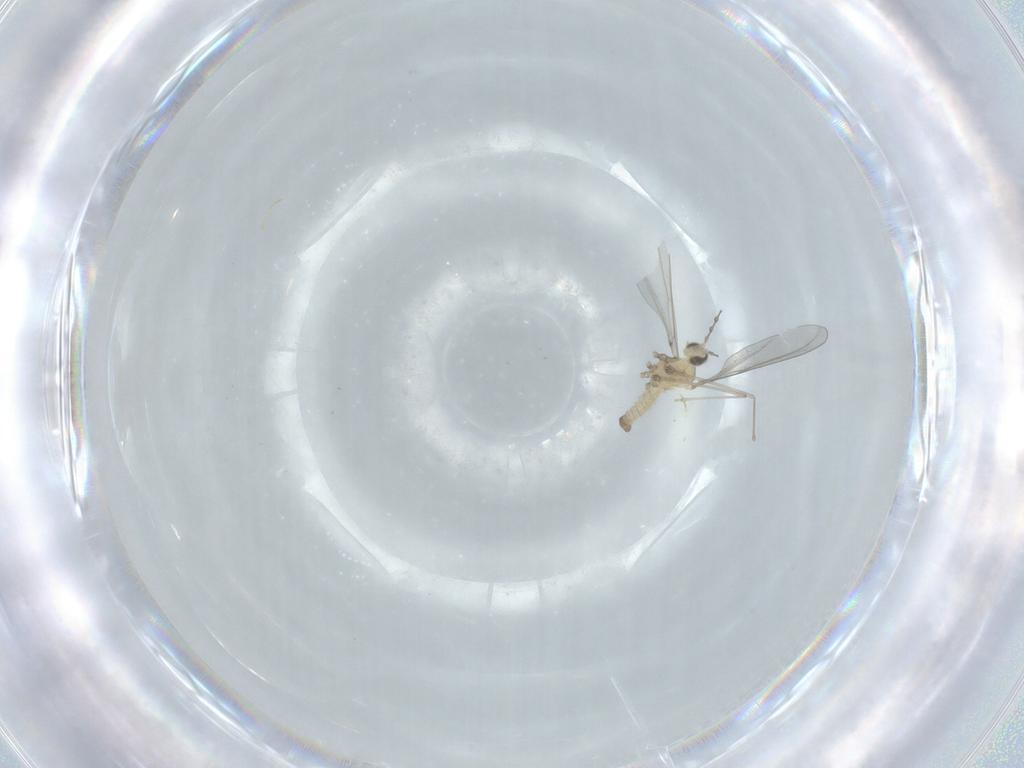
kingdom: Animalia
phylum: Arthropoda
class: Insecta
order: Diptera
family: Cecidomyiidae
